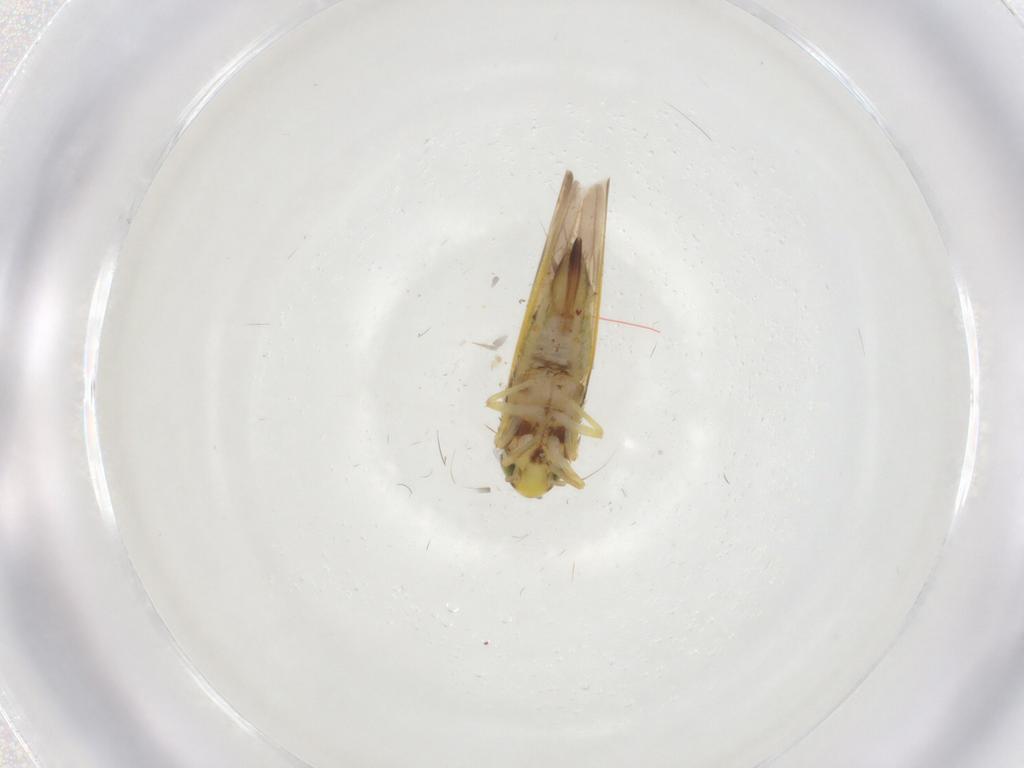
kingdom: Animalia
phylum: Arthropoda
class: Insecta
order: Hemiptera
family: Cicadellidae
